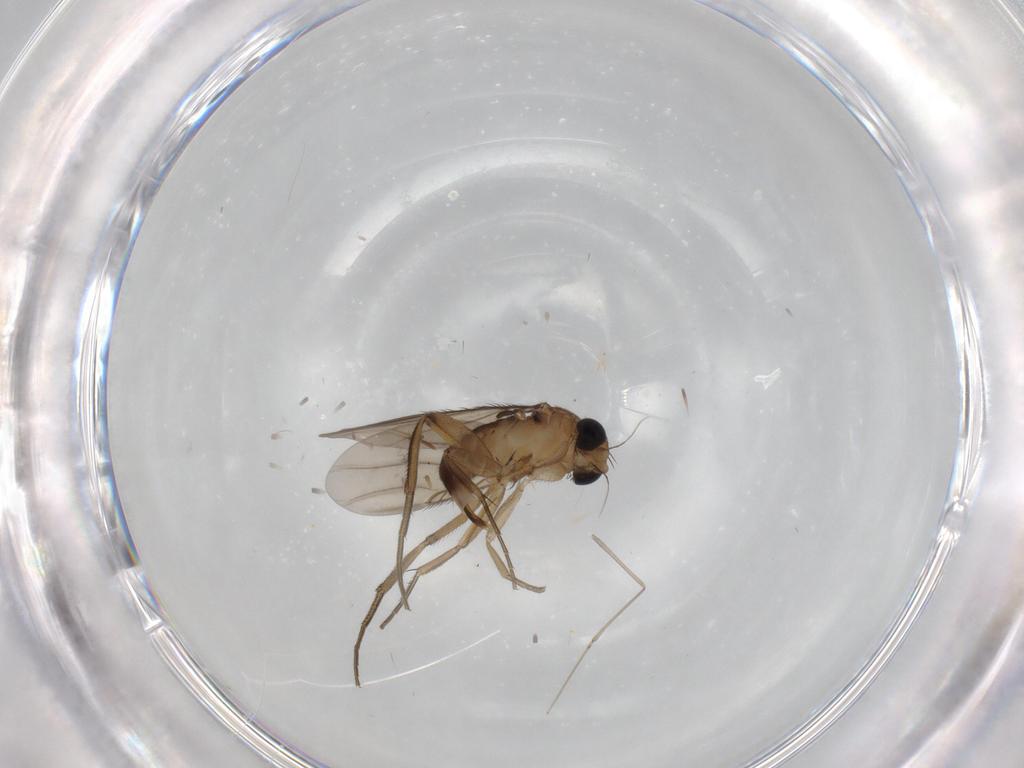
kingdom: Animalia
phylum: Arthropoda
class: Insecta
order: Diptera
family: Cecidomyiidae
